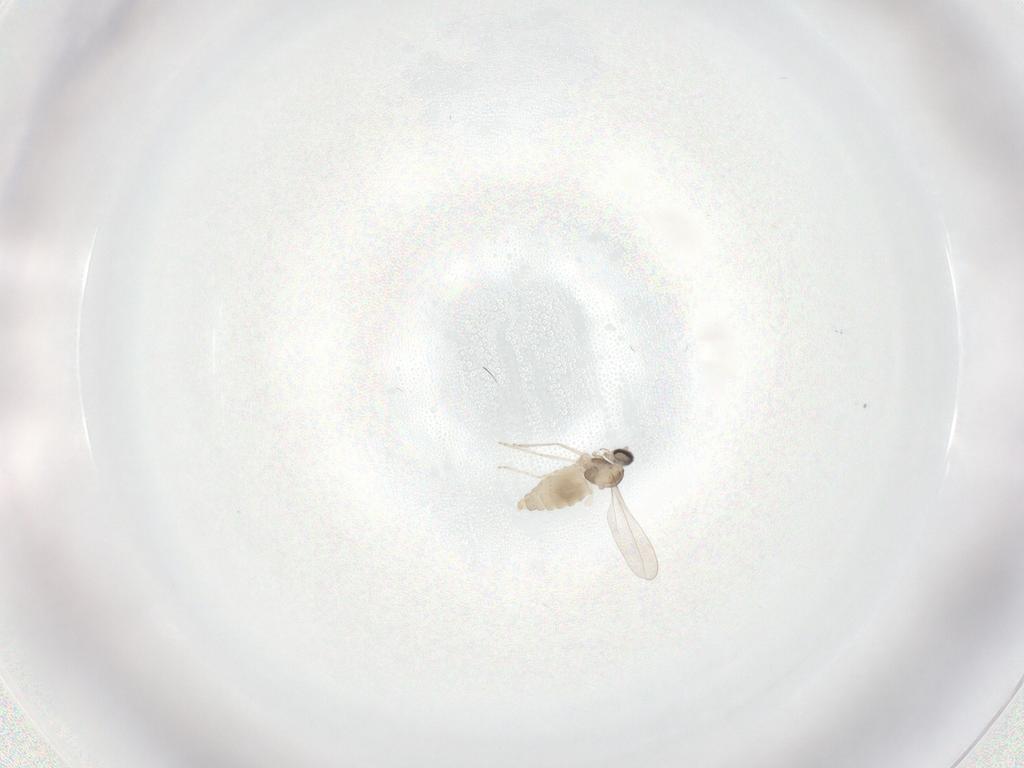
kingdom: Animalia
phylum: Arthropoda
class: Insecta
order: Diptera
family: Cecidomyiidae
